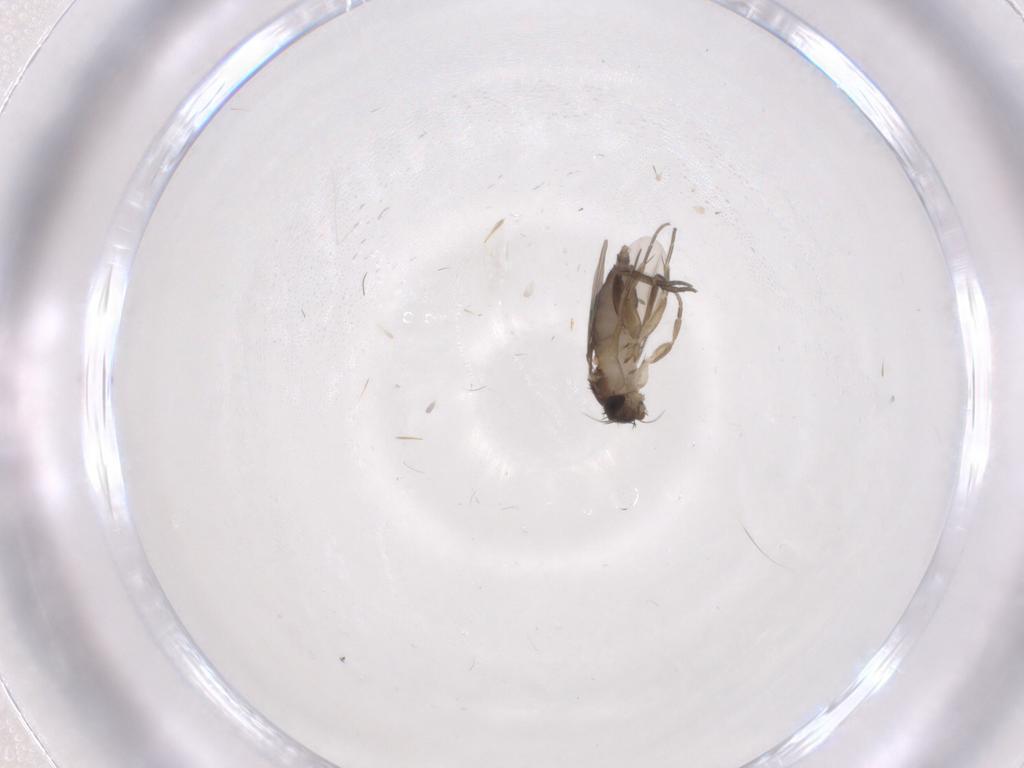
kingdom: Animalia
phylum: Arthropoda
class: Insecta
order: Diptera
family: Phoridae
